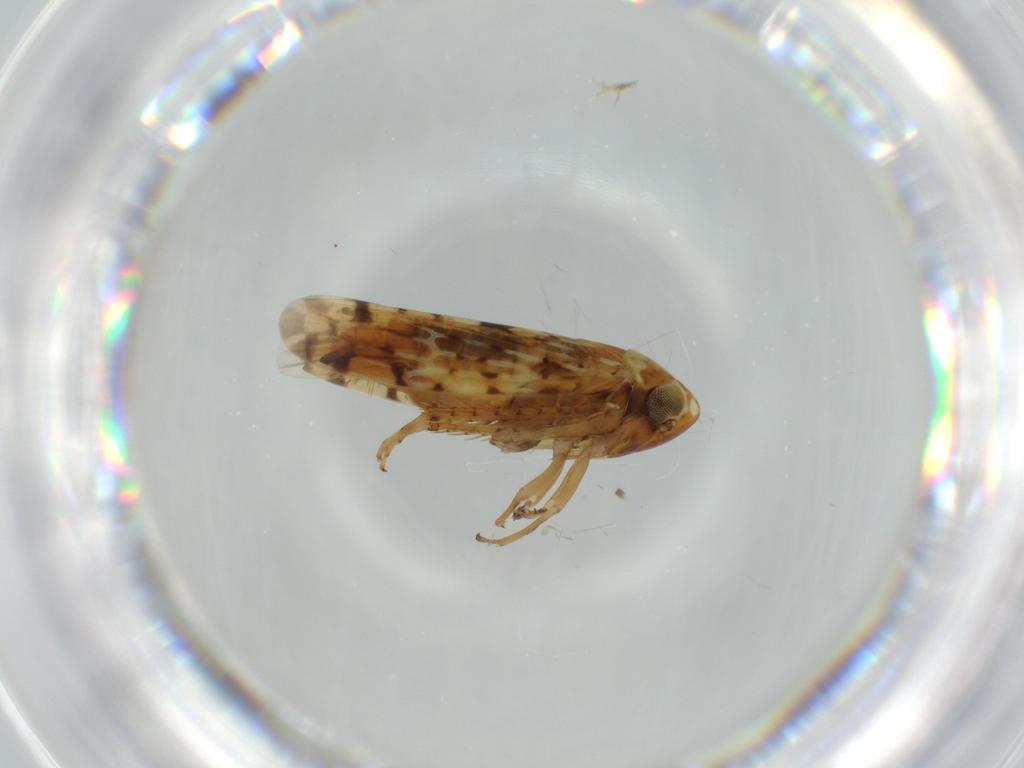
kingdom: Animalia
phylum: Arthropoda
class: Insecta
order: Hemiptera
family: Cicadellidae
